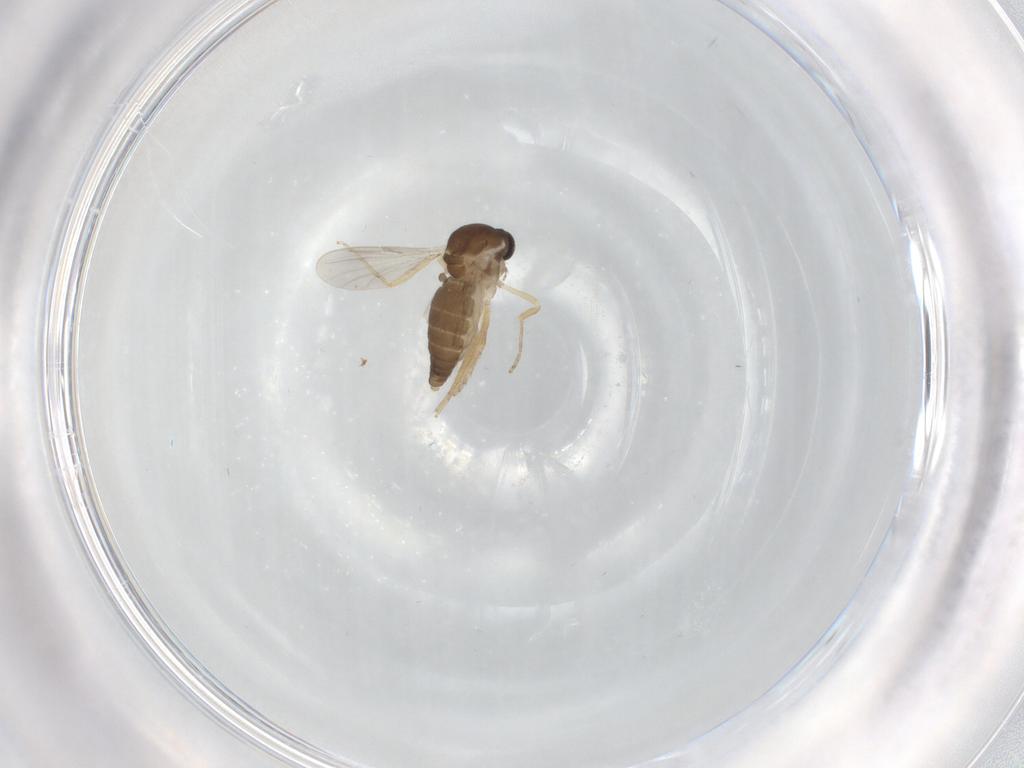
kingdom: Animalia
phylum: Arthropoda
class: Insecta
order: Diptera
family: Ceratopogonidae
